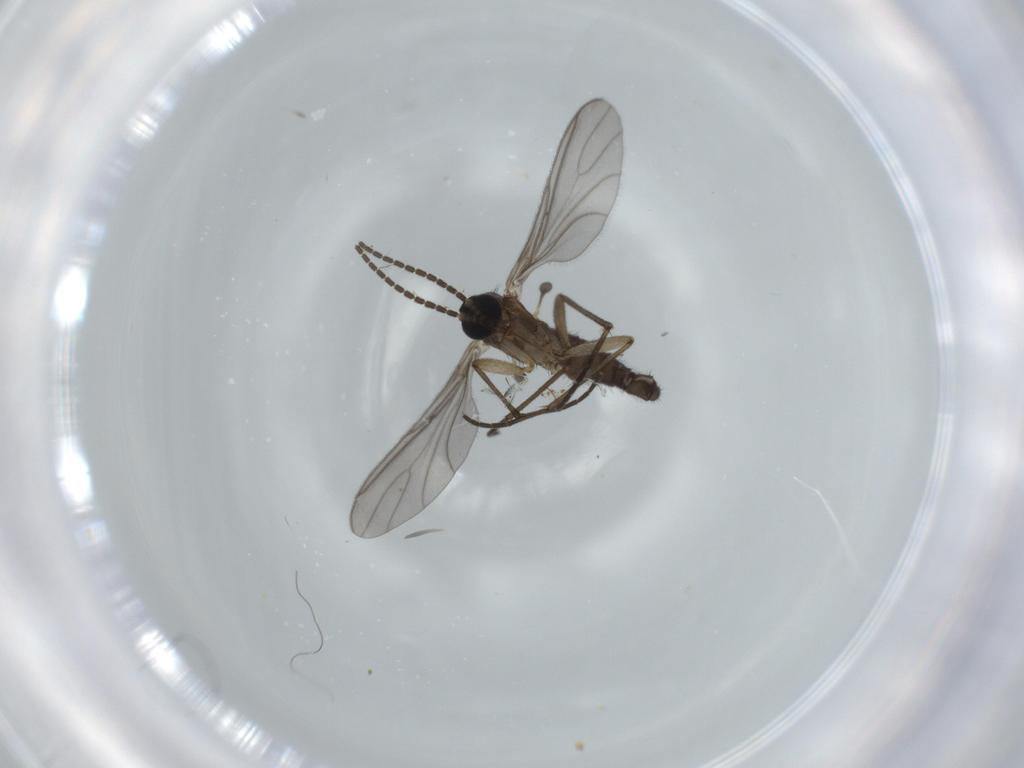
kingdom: Animalia
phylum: Arthropoda
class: Insecta
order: Diptera
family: Sciaridae
